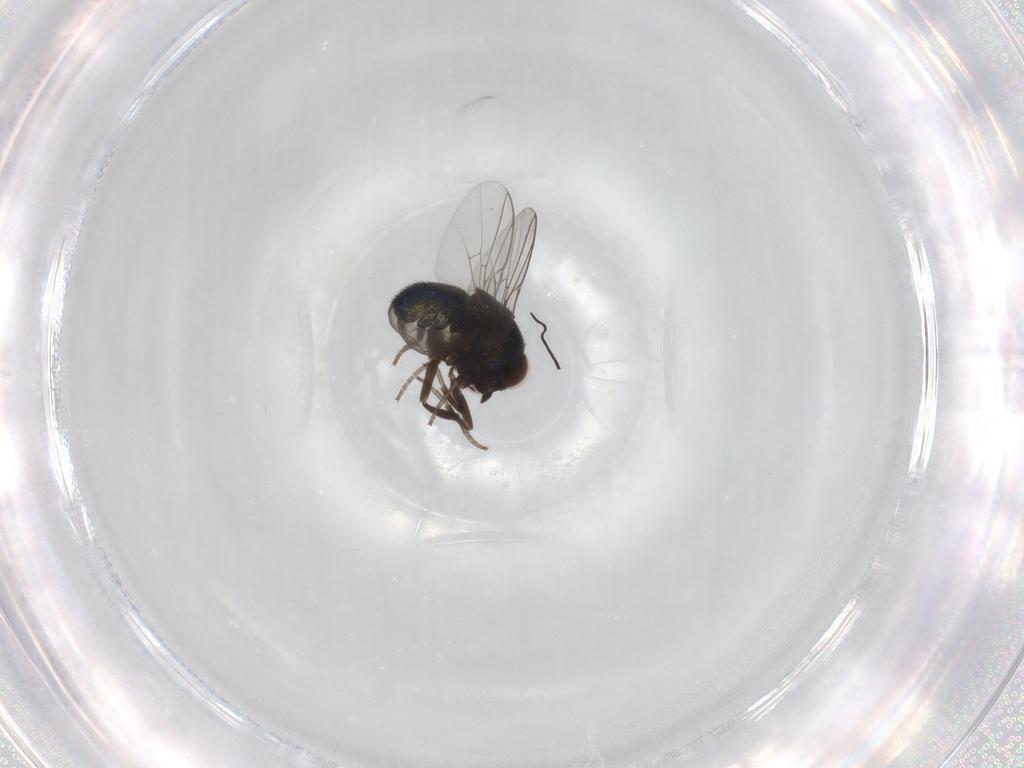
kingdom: Animalia
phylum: Arthropoda
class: Insecta
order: Diptera
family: Cryptochetidae
